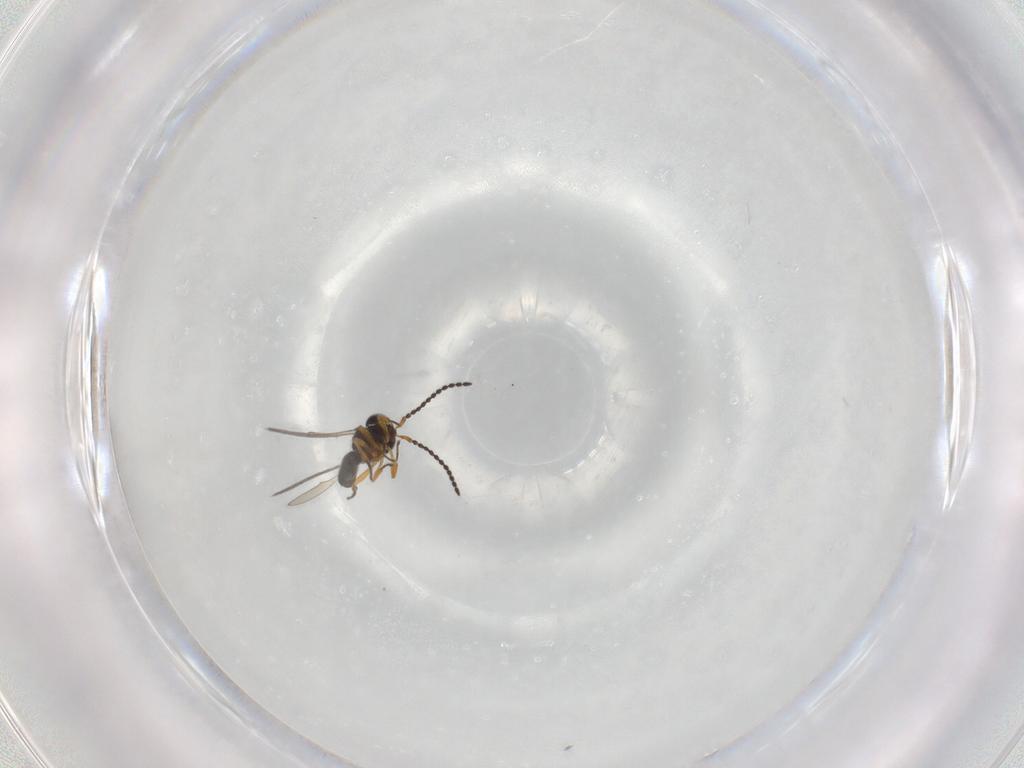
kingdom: Animalia
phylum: Arthropoda
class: Insecta
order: Hymenoptera
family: Scelionidae
